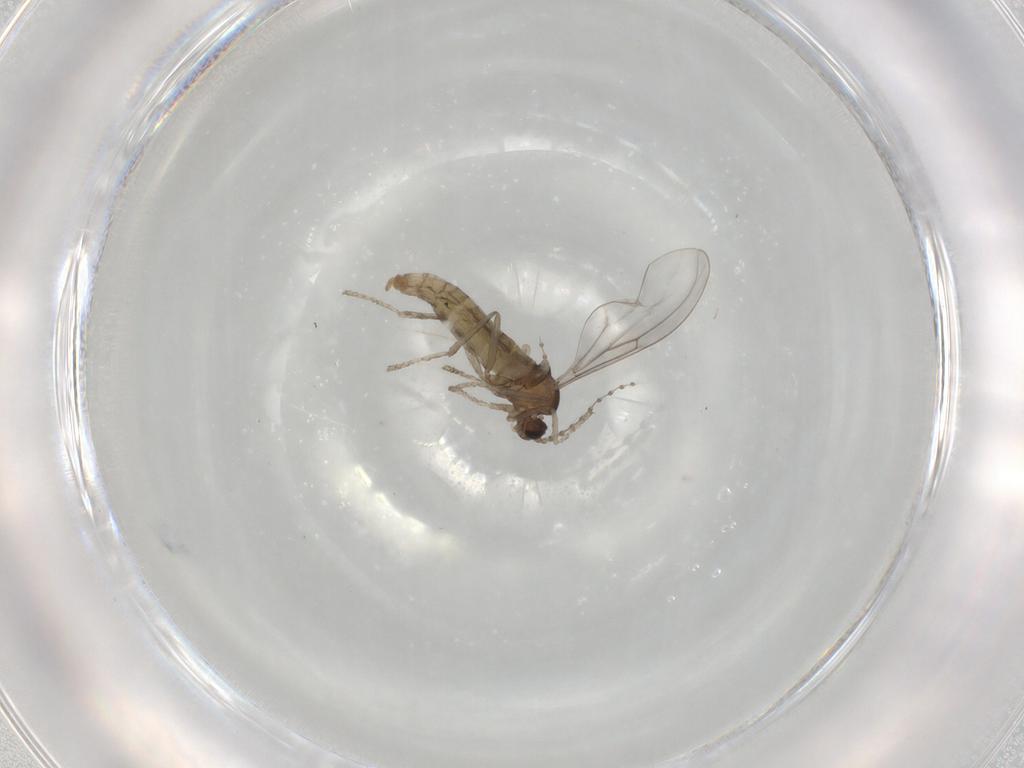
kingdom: Animalia
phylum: Arthropoda
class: Insecta
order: Diptera
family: Cecidomyiidae
